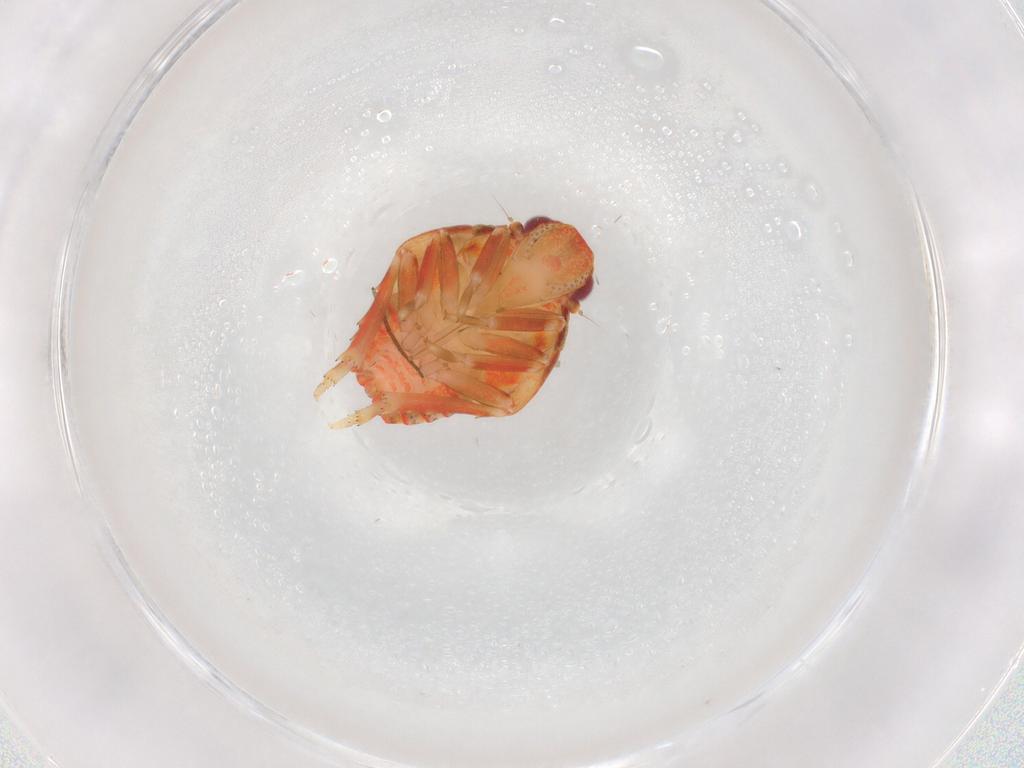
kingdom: Animalia
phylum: Arthropoda
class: Insecta
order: Hemiptera
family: Flatidae
